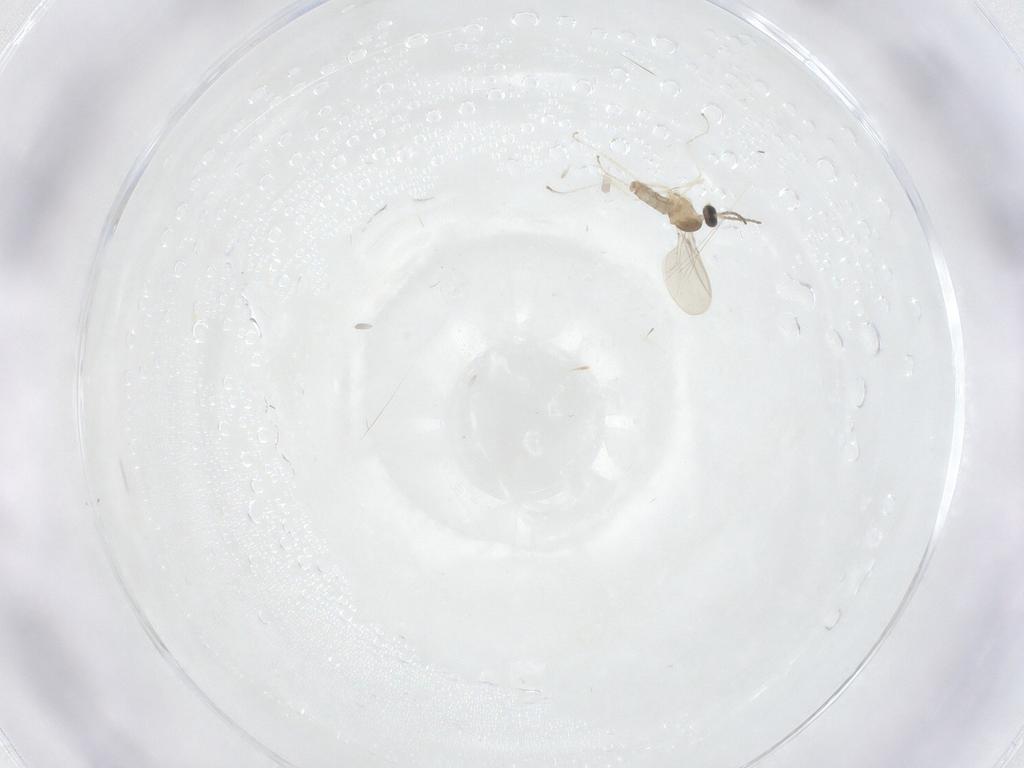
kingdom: Animalia
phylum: Arthropoda
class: Insecta
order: Diptera
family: Cecidomyiidae
